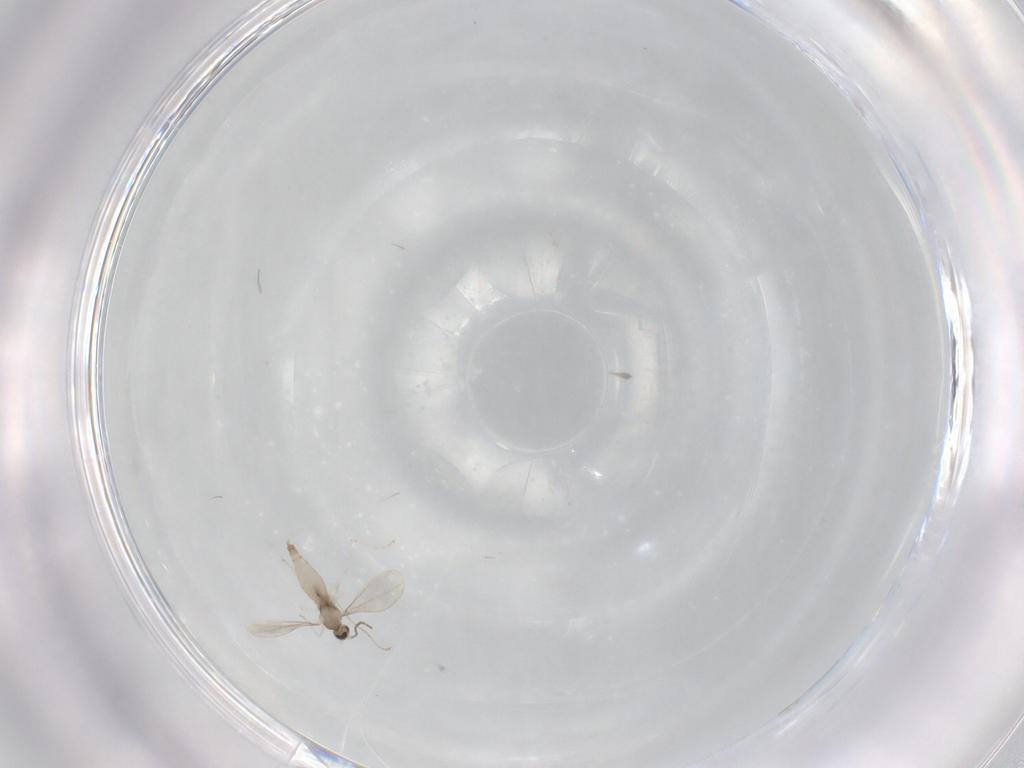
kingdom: Animalia
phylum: Arthropoda
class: Insecta
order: Diptera
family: Cecidomyiidae
